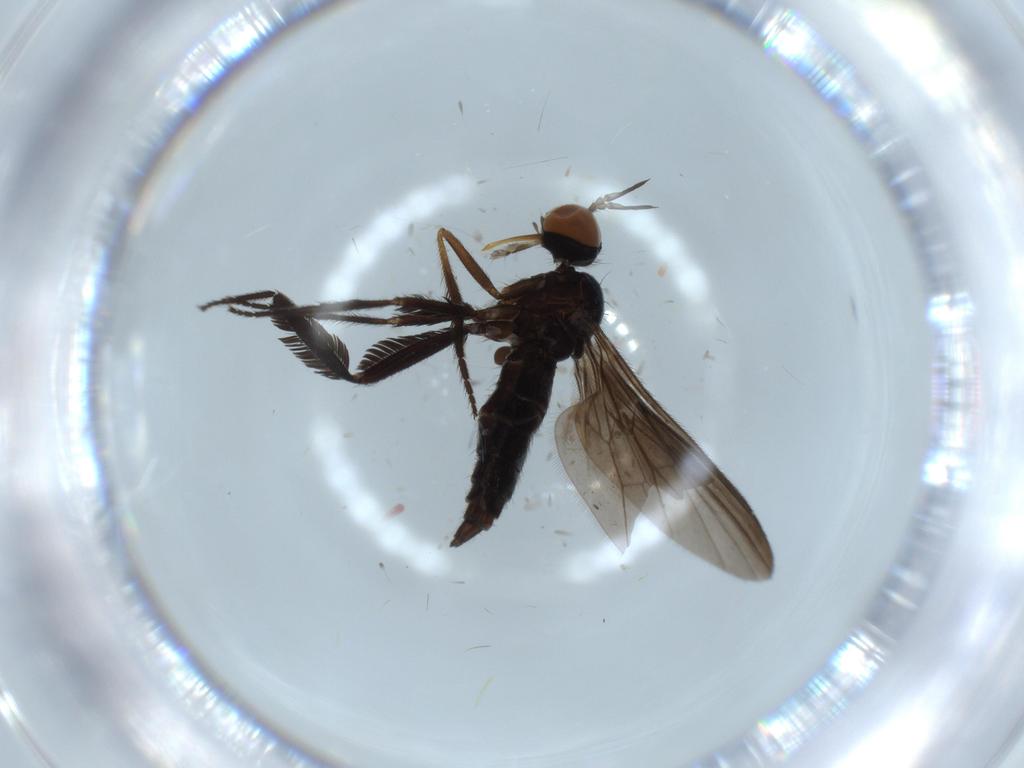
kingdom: Animalia
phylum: Arthropoda
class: Insecta
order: Diptera
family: Empididae
